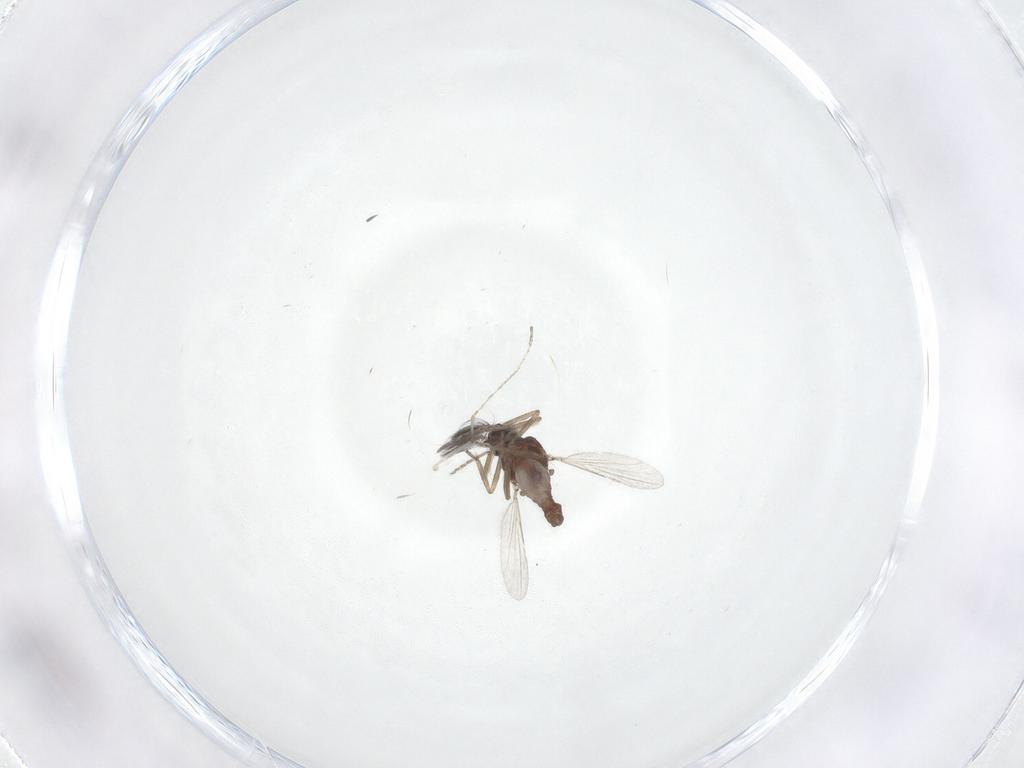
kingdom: Animalia
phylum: Arthropoda
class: Insecta
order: Diptera
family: Ceratopogonidae
